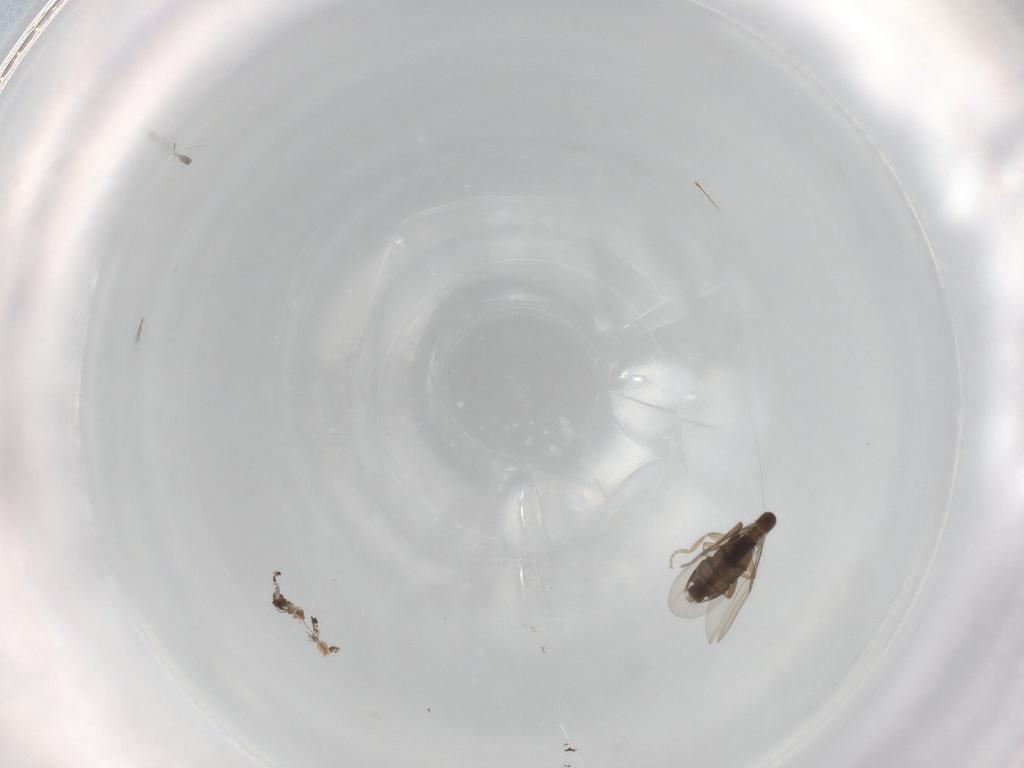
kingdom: Animalia
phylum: Arthropoda
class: Insecta
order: Diptera
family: Phoridae
